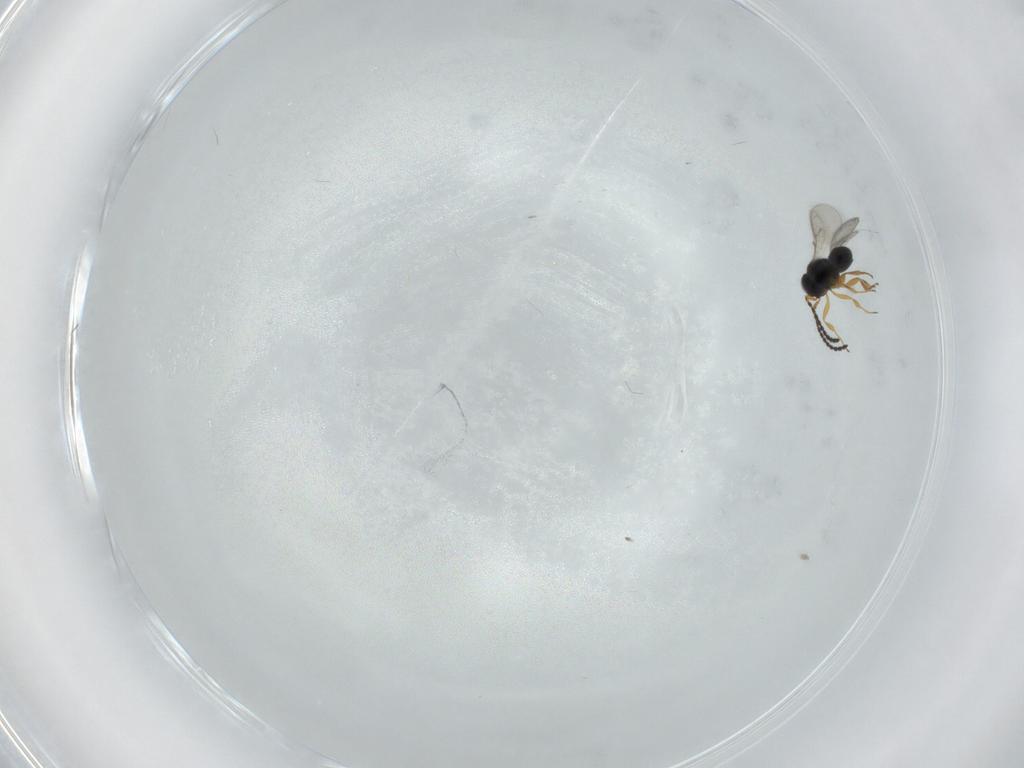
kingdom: Animalia
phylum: Arthropoda
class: Insecta
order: Hymenoptera
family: Scelionidae
